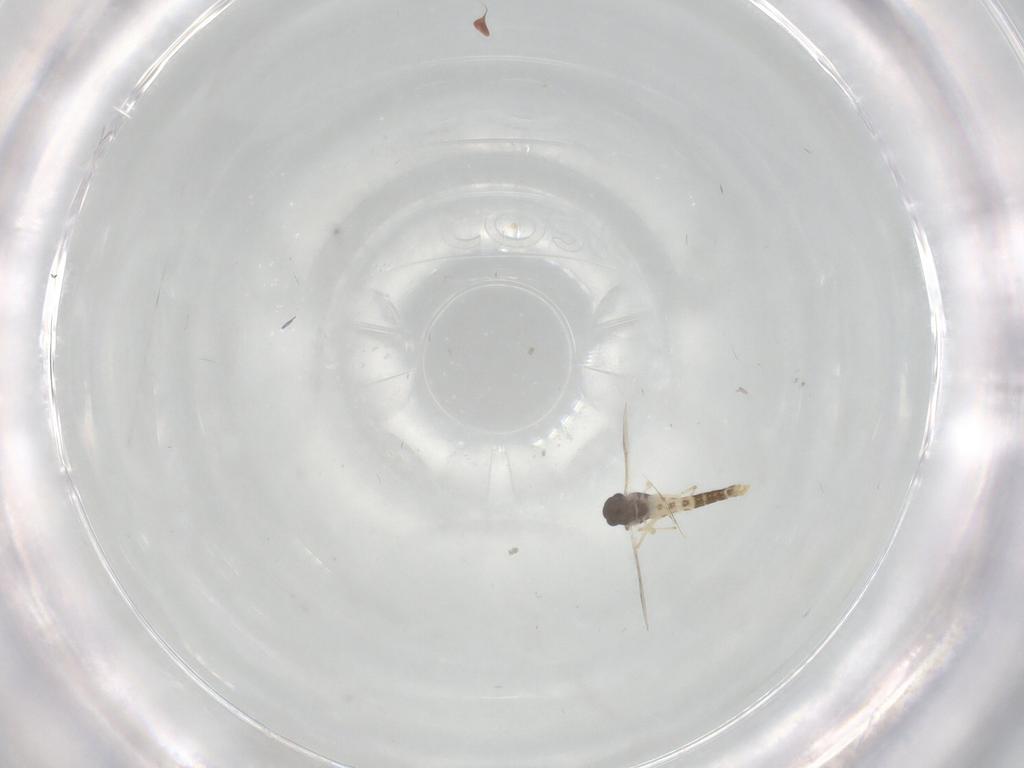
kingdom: Animalia
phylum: Arthropoda
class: Insecta
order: Diptera
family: Chironomidae
